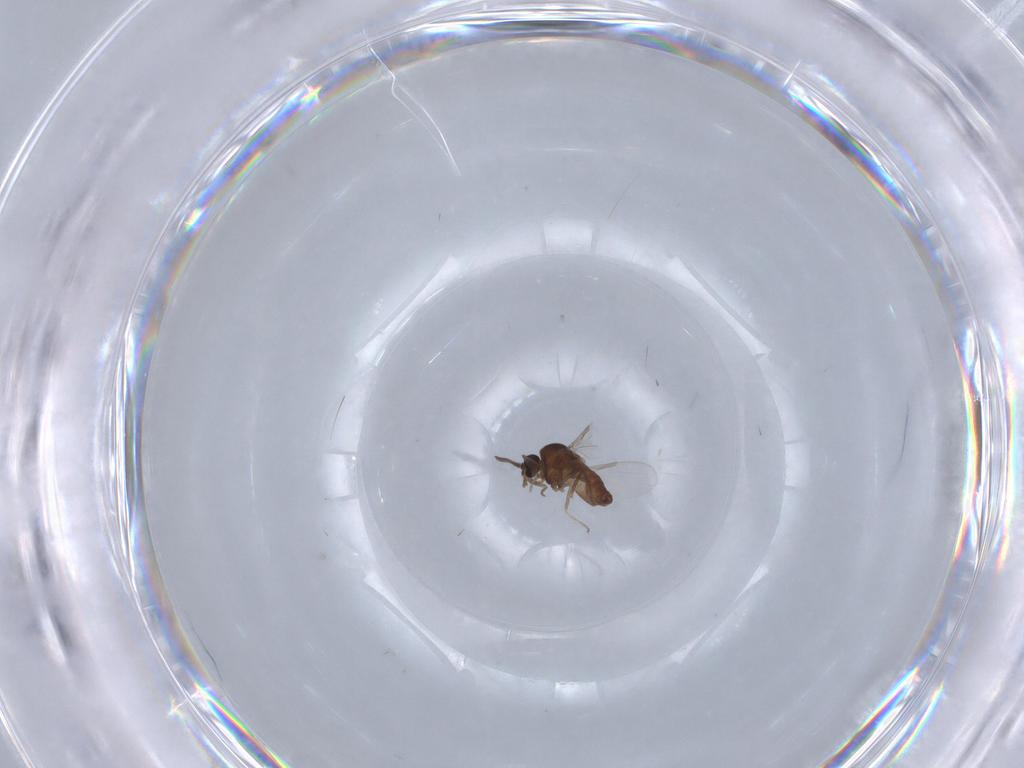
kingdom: Animalia
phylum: Arthropoda
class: Insecta
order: Diptera
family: Ceratopogonidae
